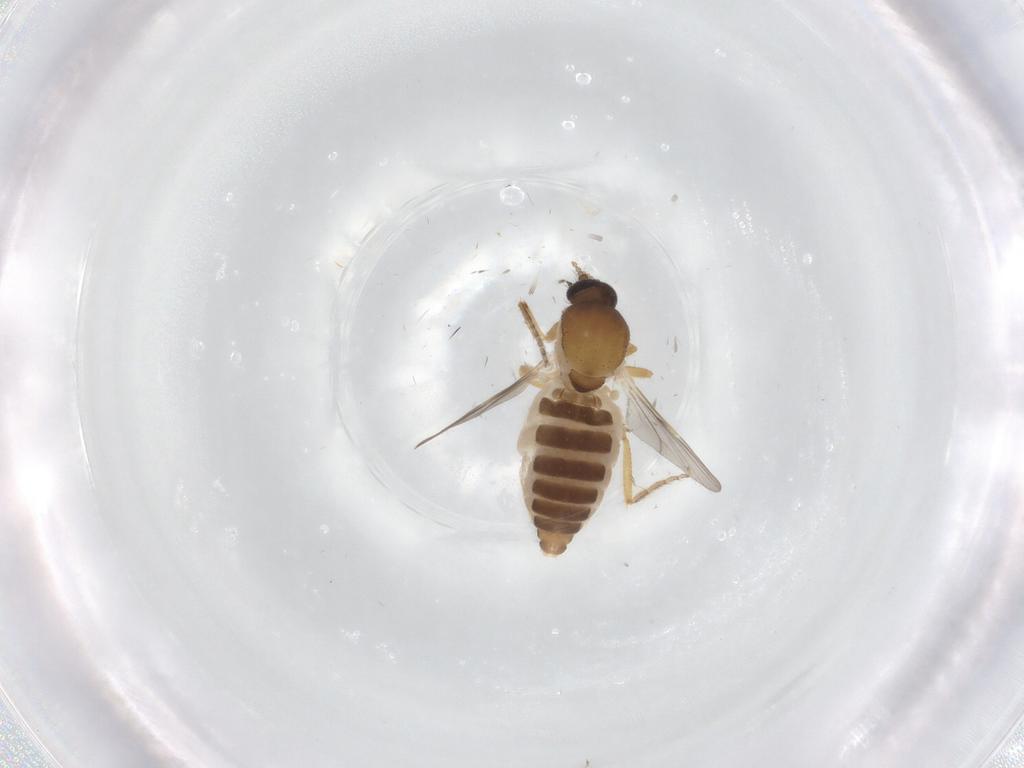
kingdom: Animalia
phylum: Arthropoda
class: Insecta
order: Diptera
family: Ceratopogonidae
